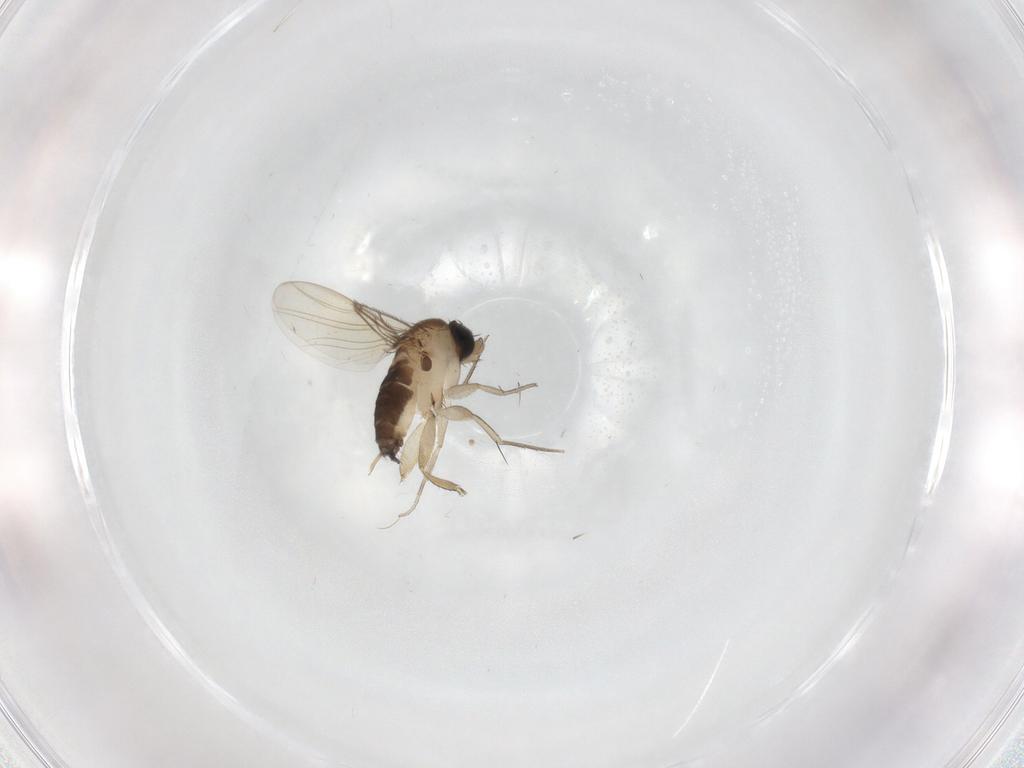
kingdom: Animalia
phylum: Arthropoda
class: Insecta
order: Diptera
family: Phoridae
